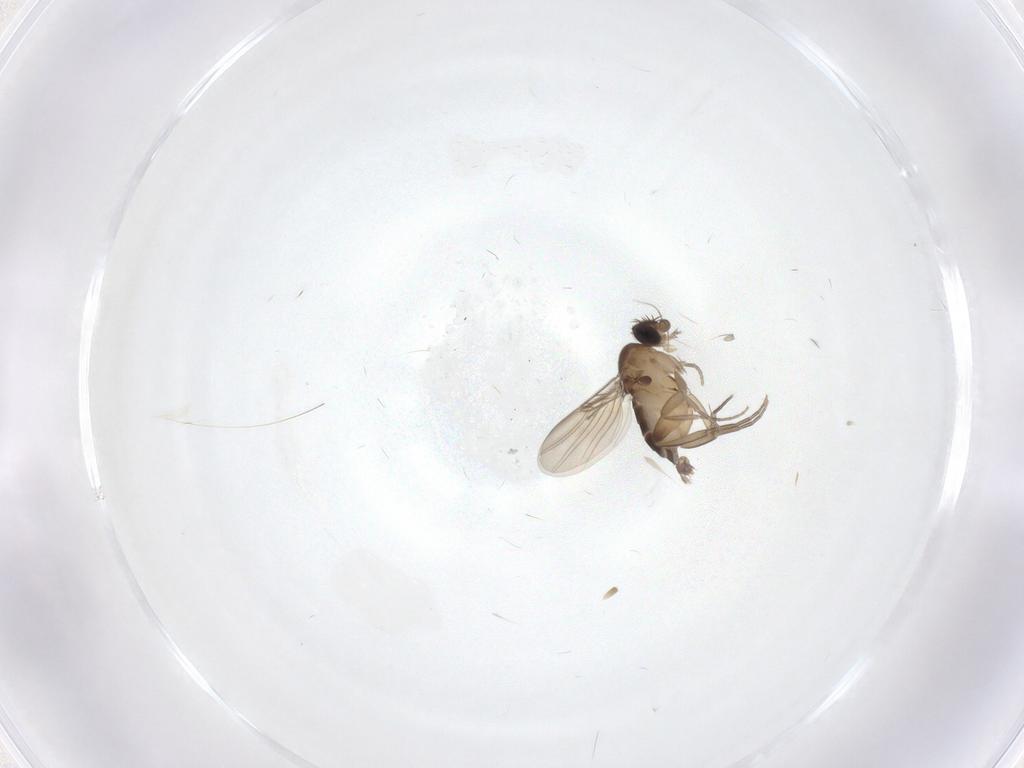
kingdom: Animalia
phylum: Arthropoda
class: Insecta
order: Diptera
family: Phoridae
